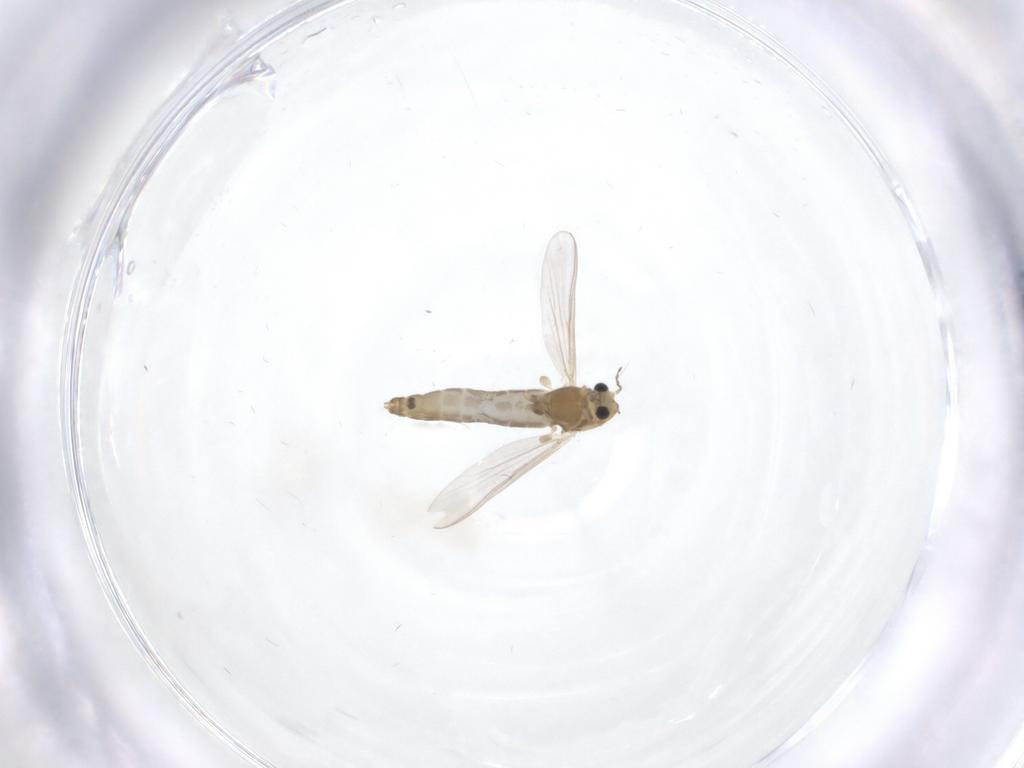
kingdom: Animalia
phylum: Arthropoda
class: Insecta
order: Diptera
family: Chironomidae
